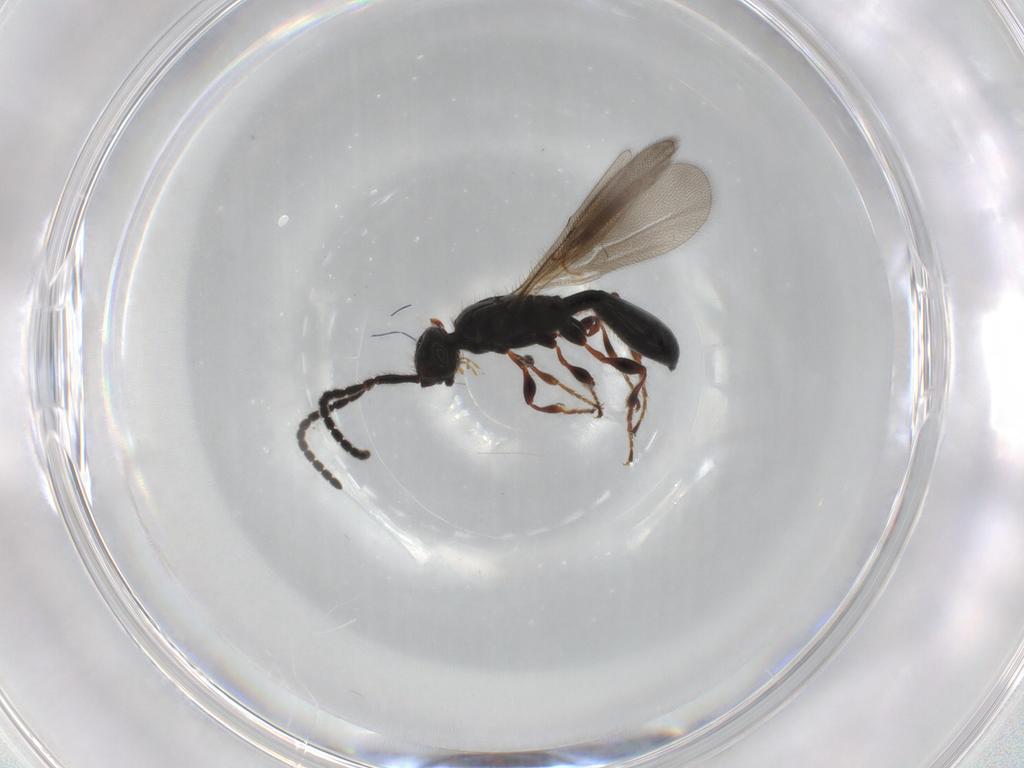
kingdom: Animalia
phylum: Arthropoda
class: Insecta
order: Hymenoptera
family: Diapriidae
